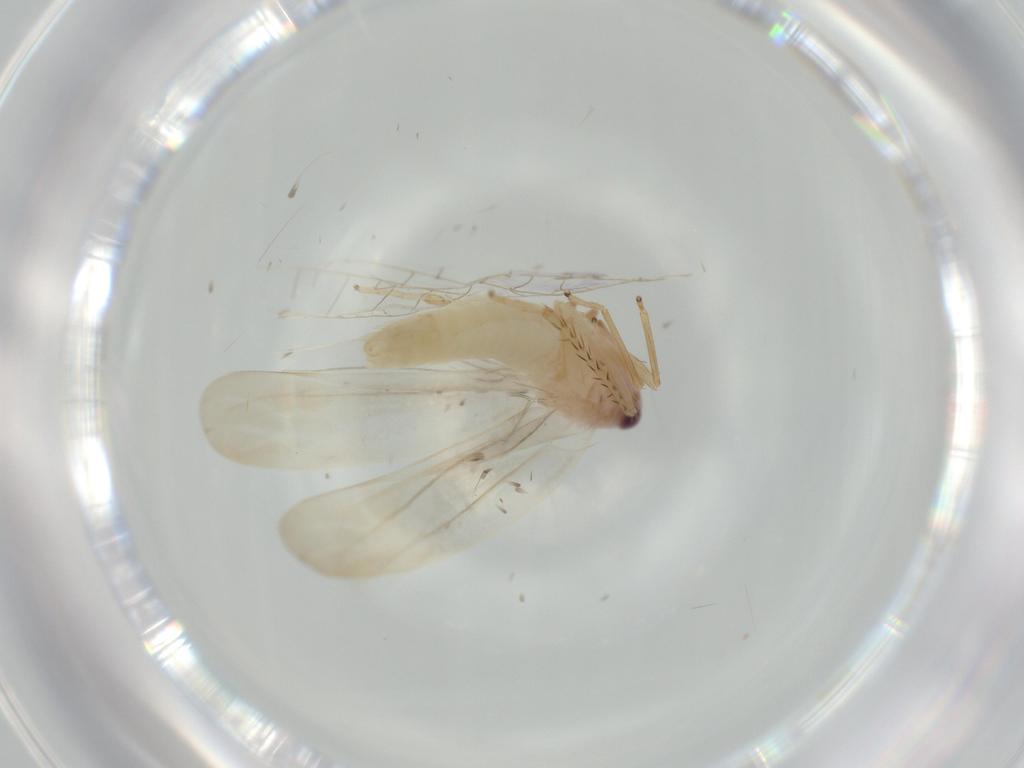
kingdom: Animalia
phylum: Arthropoda
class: Insecta
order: Hemiptera
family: Cicadellidae
